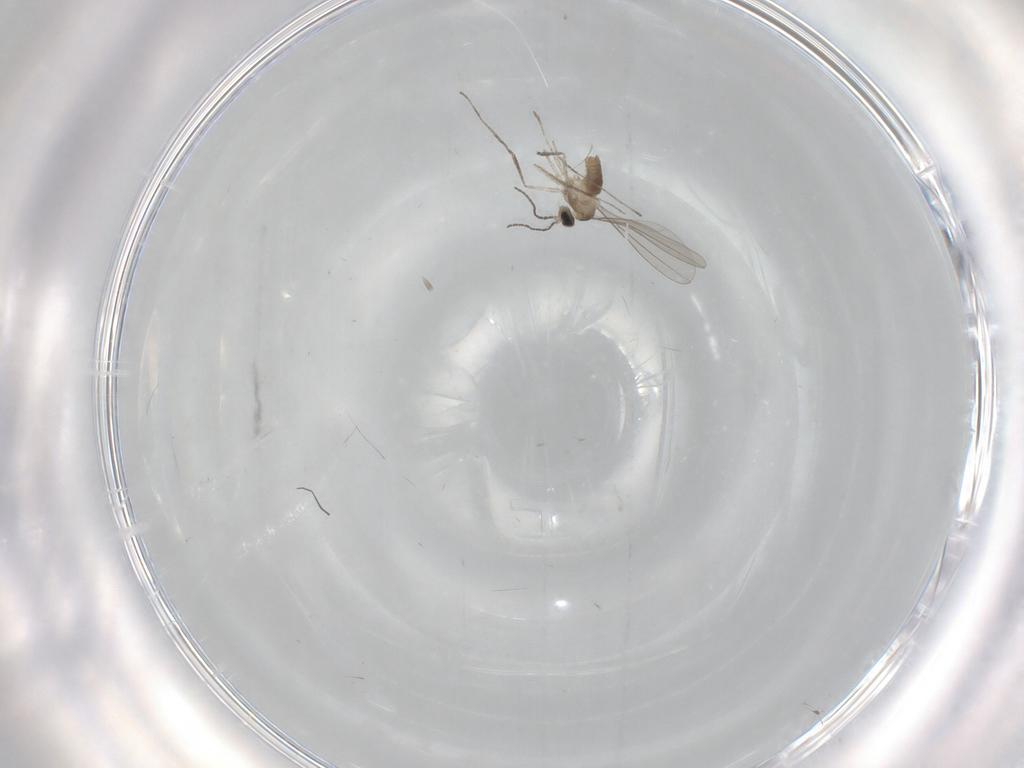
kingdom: Animalia
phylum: Arthropoda
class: Insecta
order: Diptera
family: Cecidomyiidae
